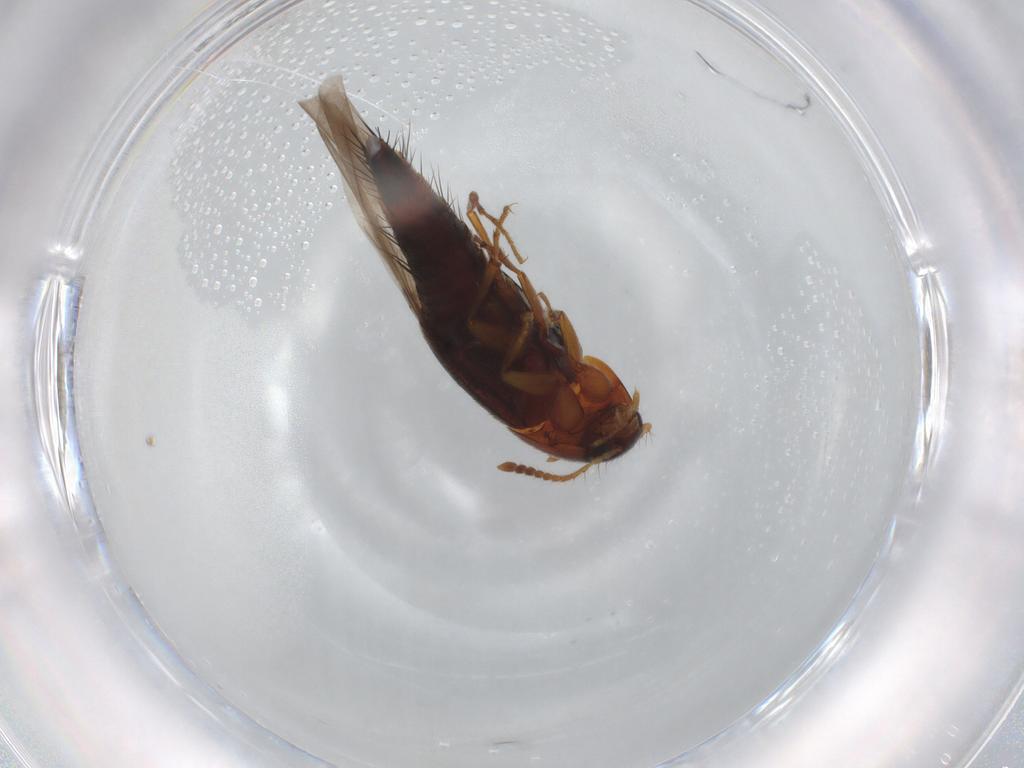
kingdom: Animalia
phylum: Arthropoda
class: Insecta
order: Coleoptera
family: Staphylinidae
